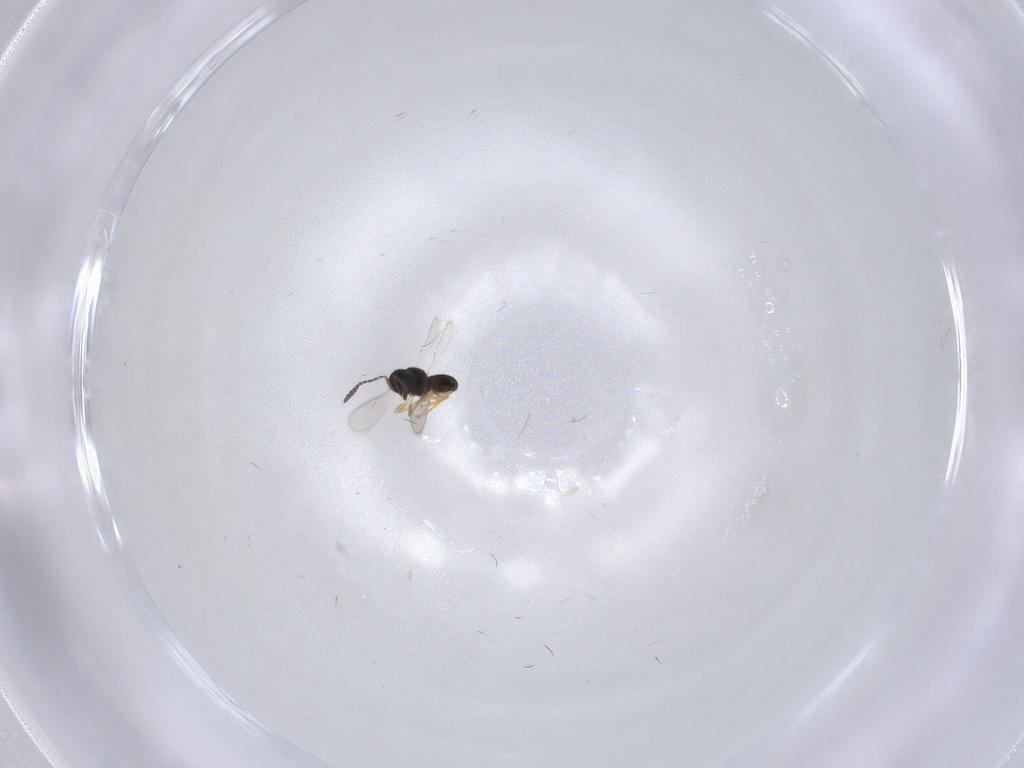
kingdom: Animalia
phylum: Arthropoda
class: Insecta
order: Hymenoptera
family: Scelionidae
